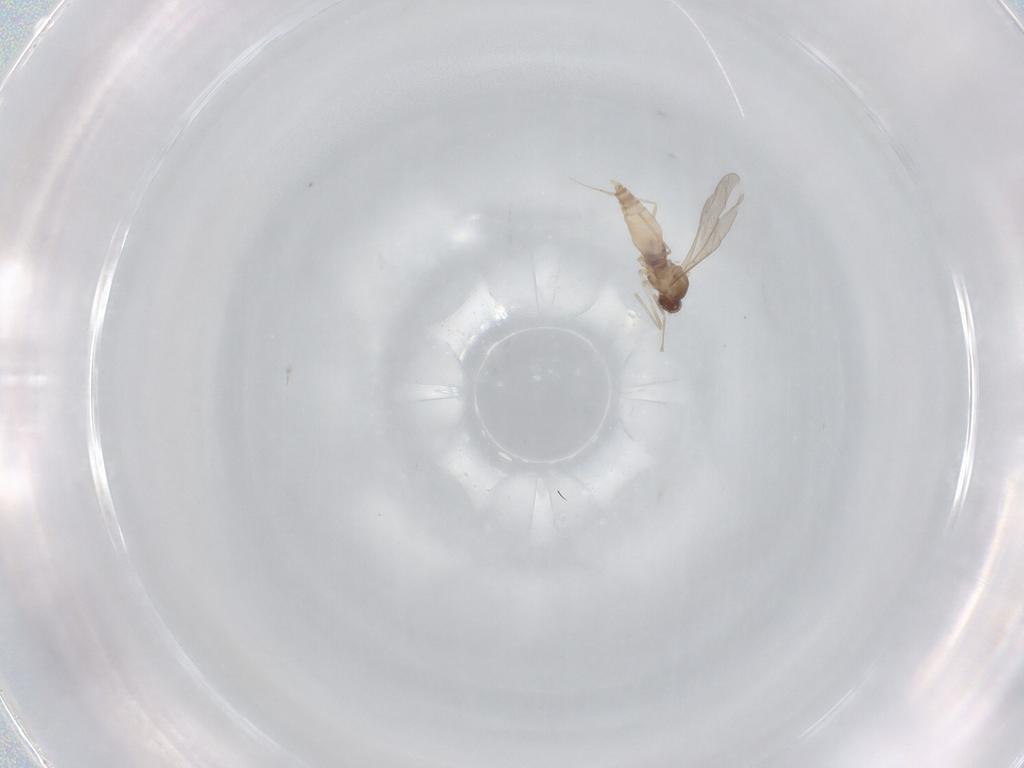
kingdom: Animalia
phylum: Arthropoda
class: Insecta
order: Diptera
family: Cecidomyiidae
